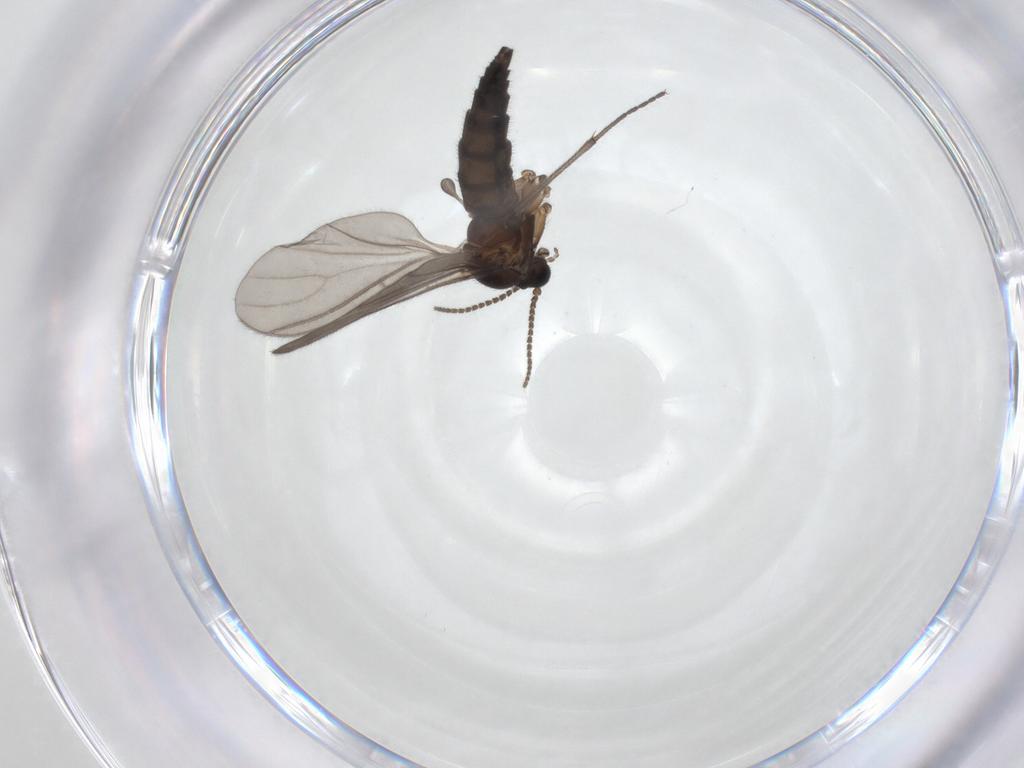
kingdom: Animalia
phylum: Arthropoda
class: Insecta
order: Diptera
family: Sciaridae
